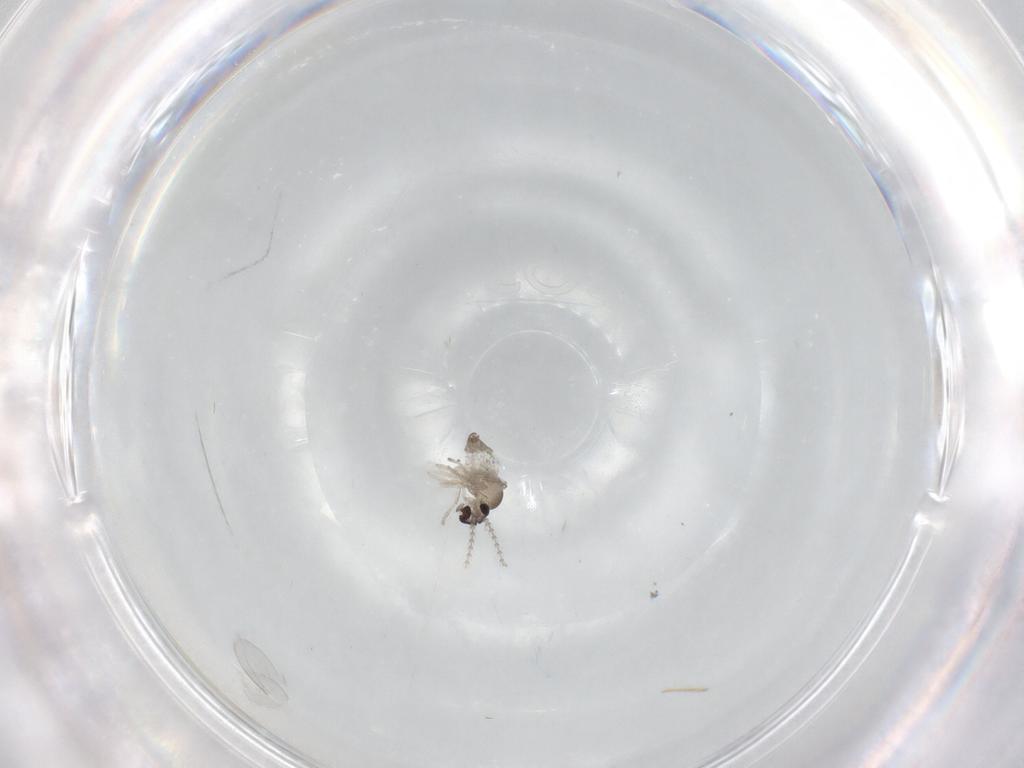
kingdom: Animalia
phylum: Arthropoda
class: Insecta
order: Diptera
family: Cecidomyiidae
